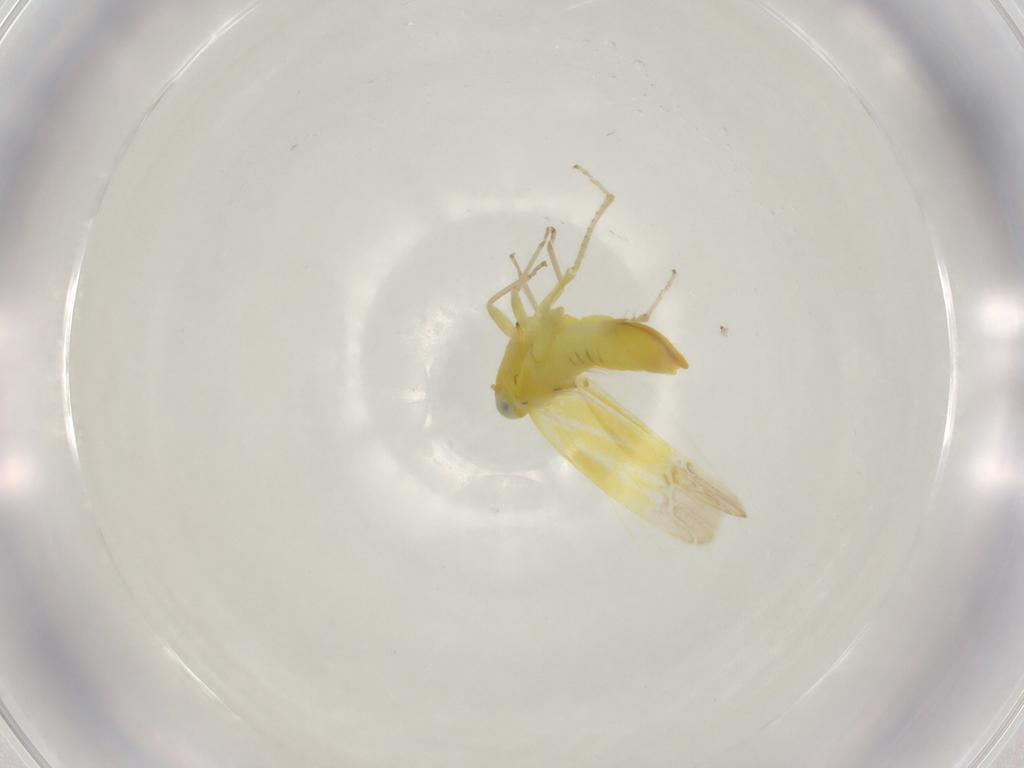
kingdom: Animalia
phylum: Arthropoda
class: Insecta
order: Hemiptera
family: Cicadellidae
